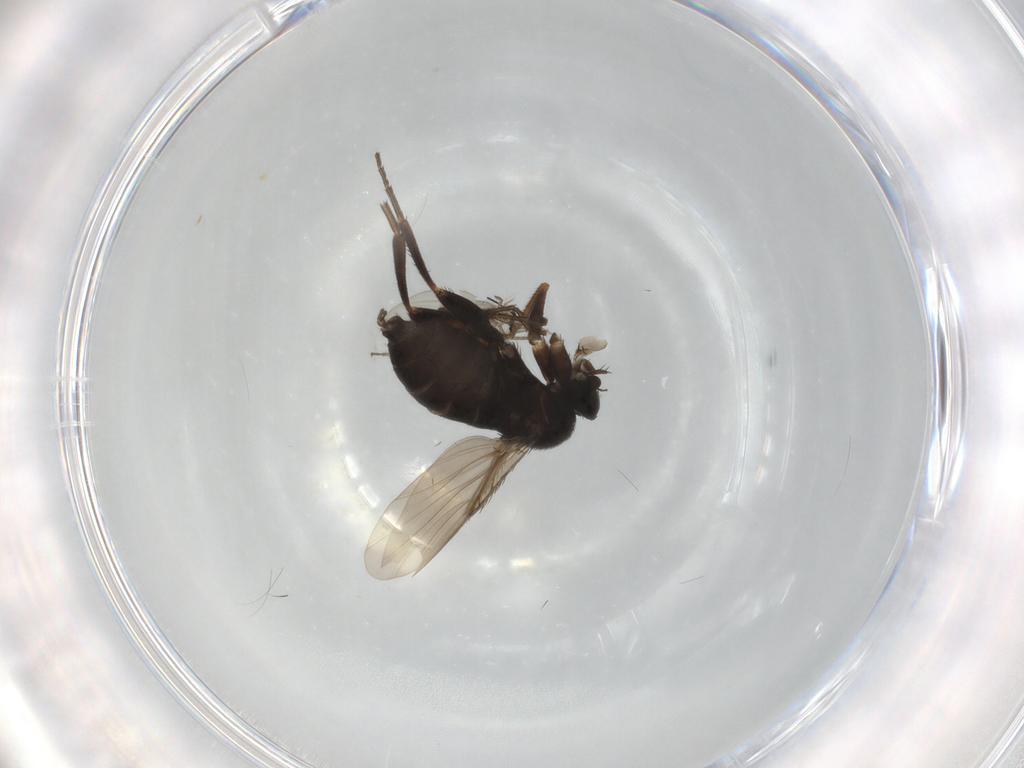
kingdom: Animalia
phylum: Arthropoda
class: Insecta
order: Diptera
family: Phoridae
